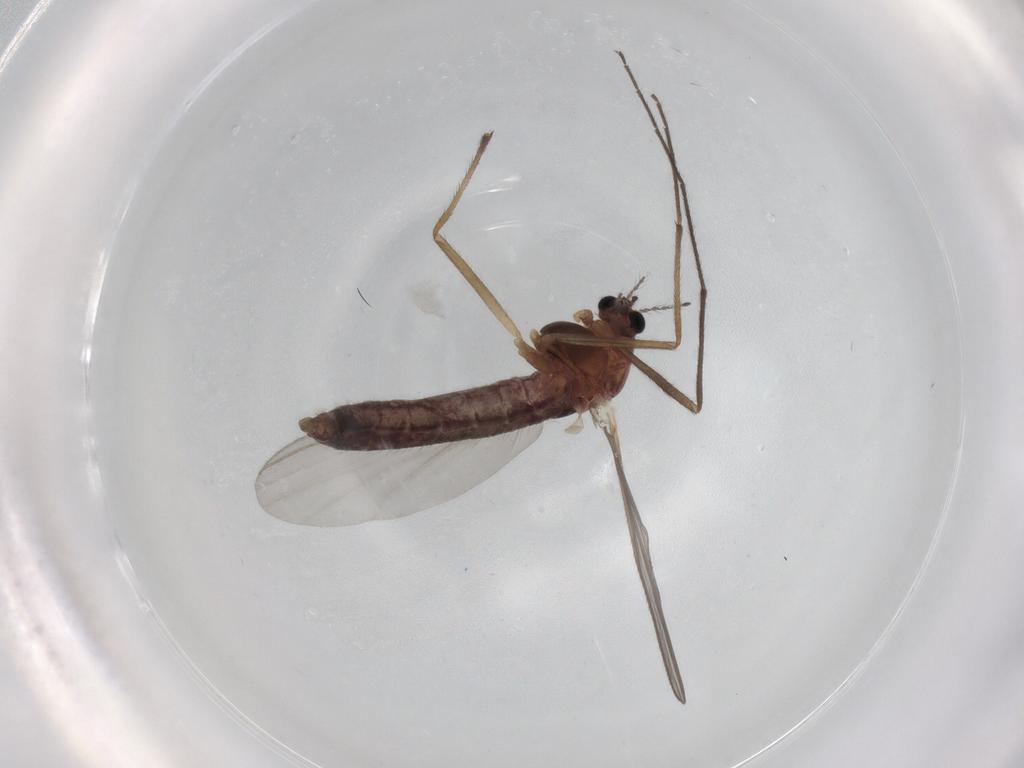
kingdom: Animalia
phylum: Arthropoda
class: Insecta
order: Diptera
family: Chironomidae
